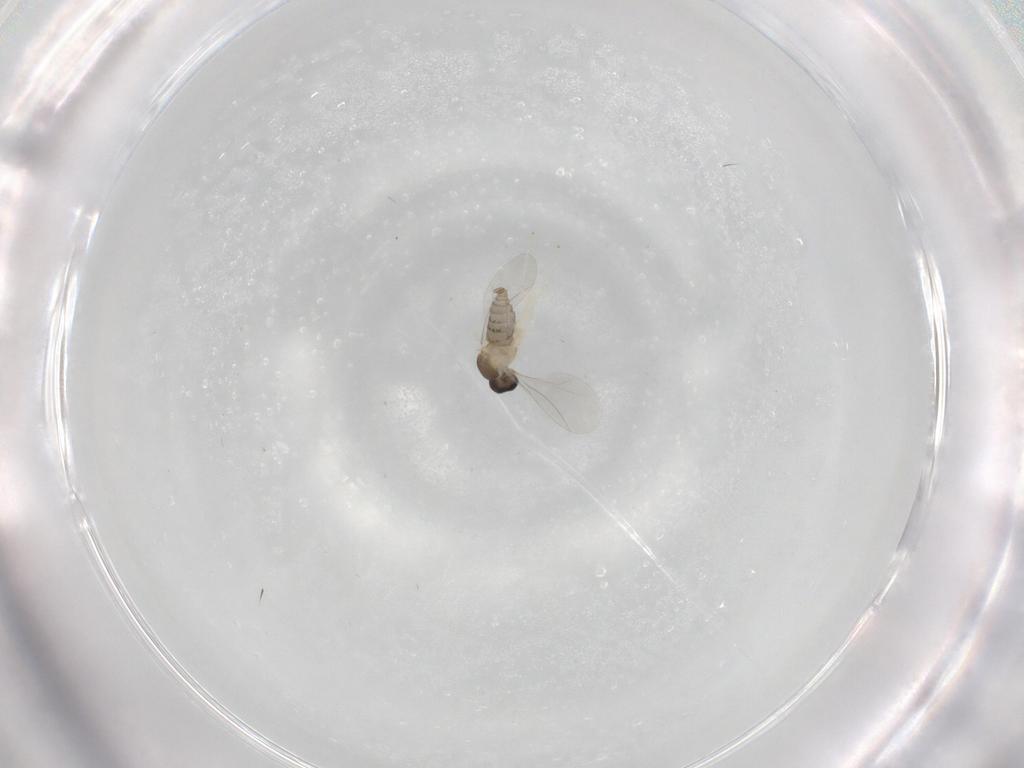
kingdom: Animalia
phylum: Arthropoda
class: Insecta
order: Diptera
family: Cecidomyiidae
